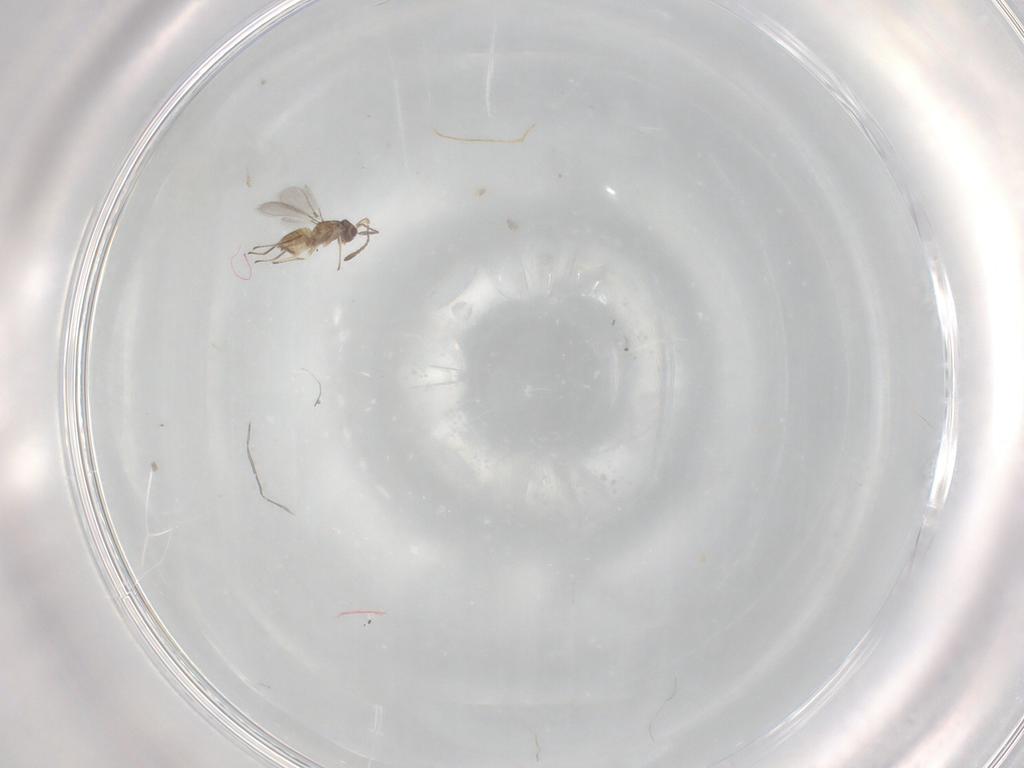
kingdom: Animalia
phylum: Arthropoda
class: Insecta
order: Hymenoptera
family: Mymaridae
